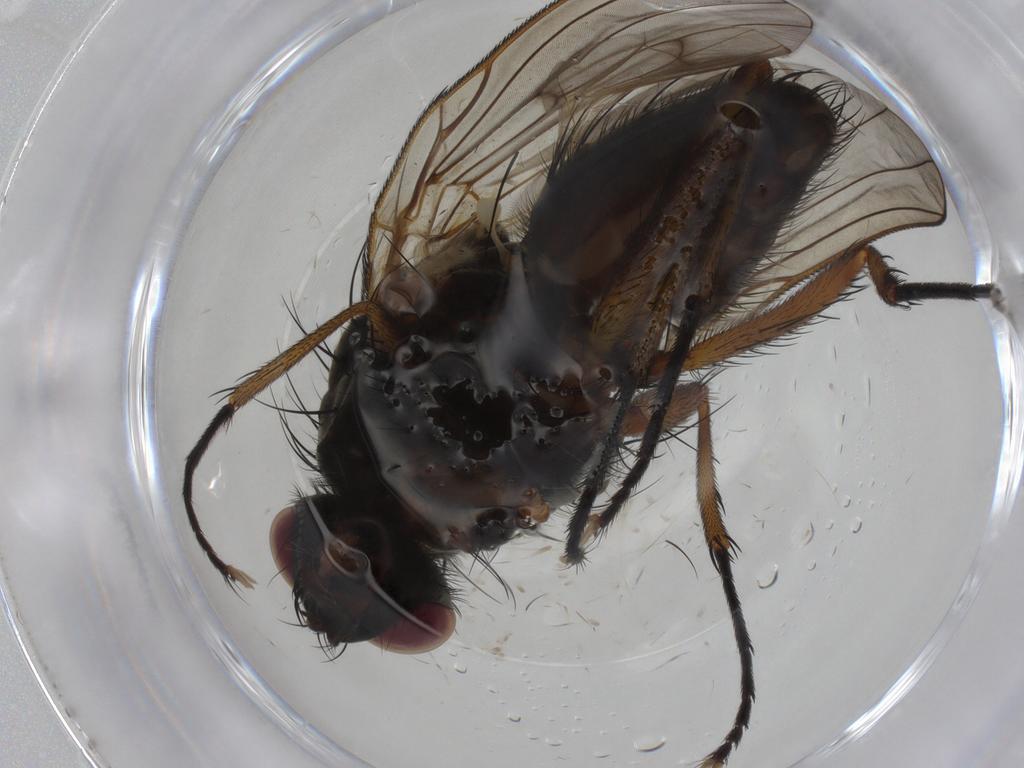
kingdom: Animalia
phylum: Arthropoda
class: Insecta
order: Diptera
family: Anthomyiidae
